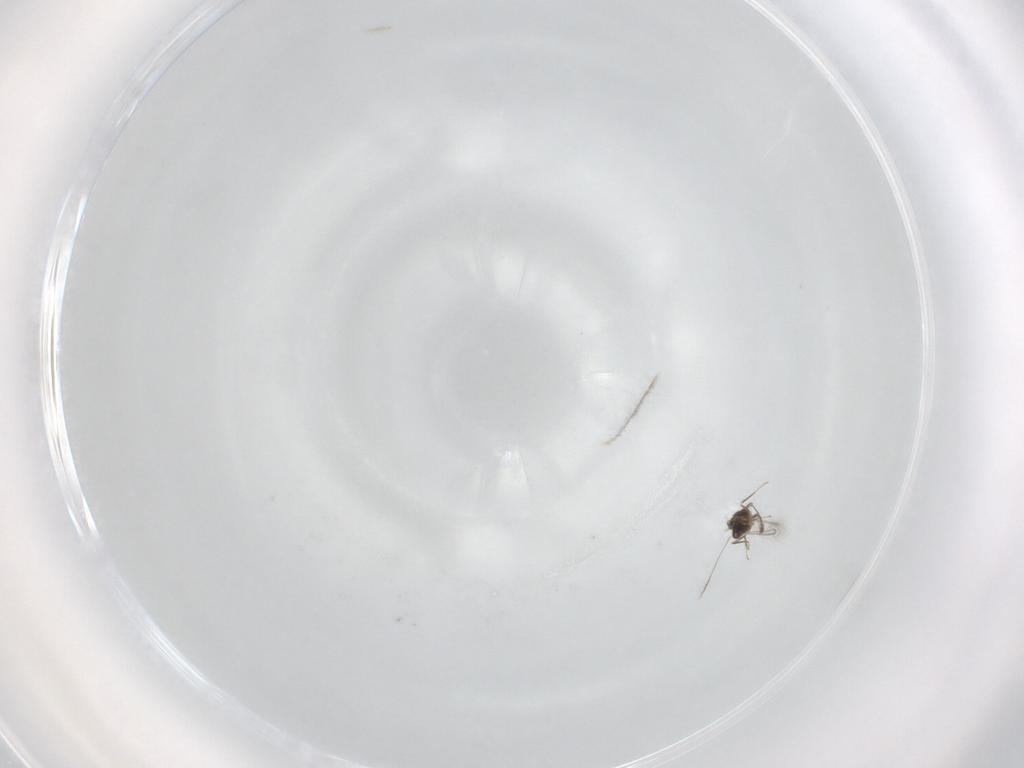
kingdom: Animalia
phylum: Arthropoda
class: Insecta
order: Hymenoptera
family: Mymaridae
